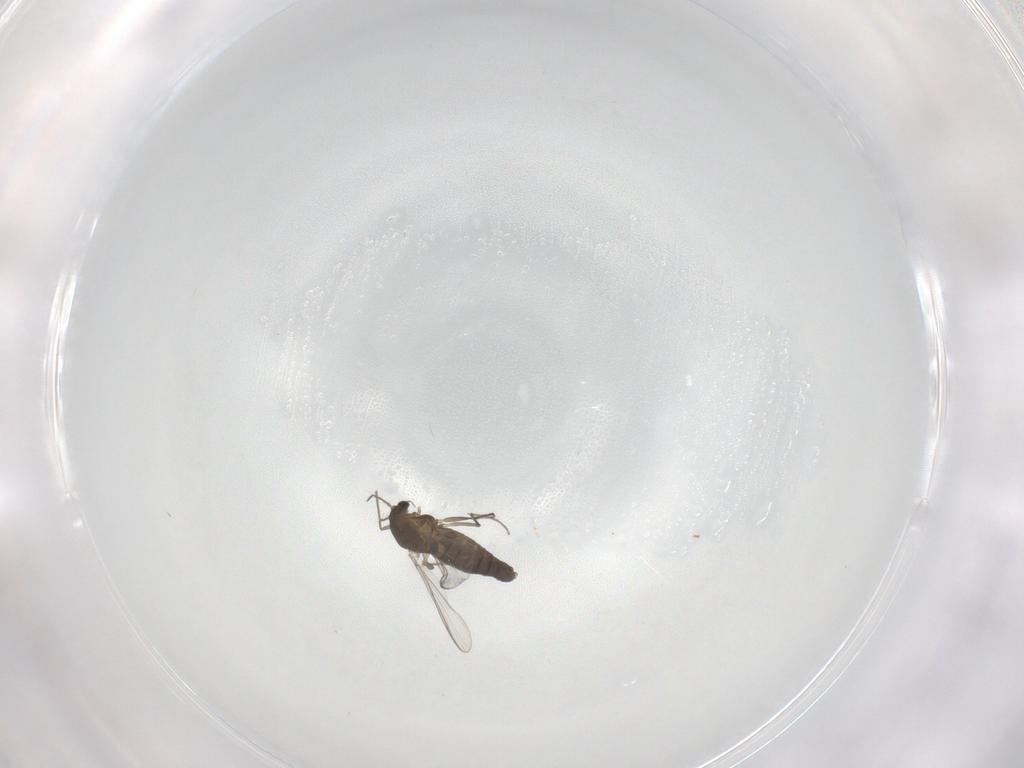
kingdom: Animalia
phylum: Arthropoda
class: Insecta
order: Diptera
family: Chironomidae
